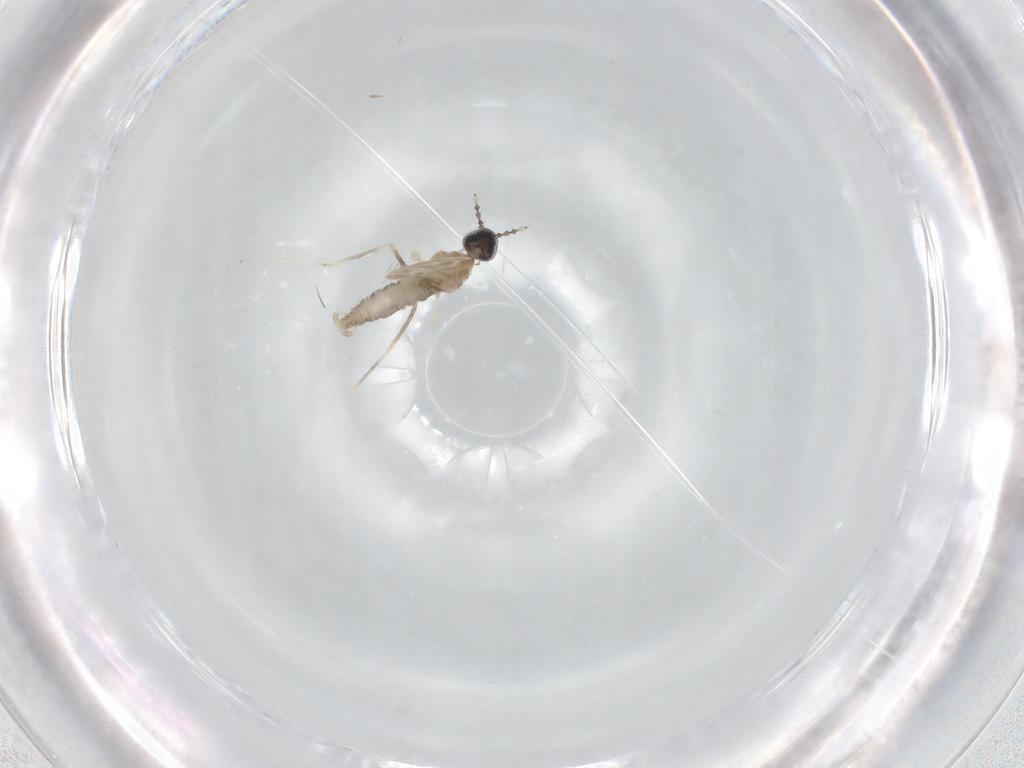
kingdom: Animalia
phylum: Arthropoda
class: Insecta
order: Diptera
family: Cecidomyiidae
